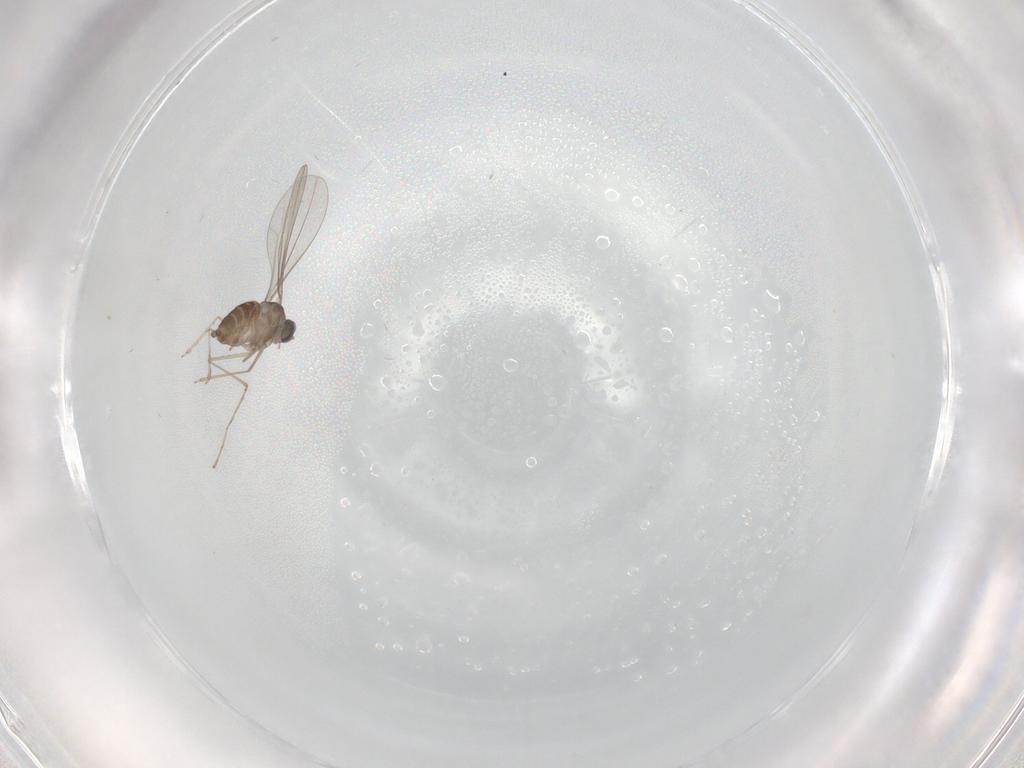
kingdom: Animalia
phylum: Arthropoda
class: Insecta
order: Diptera
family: Cecidomyiidae
